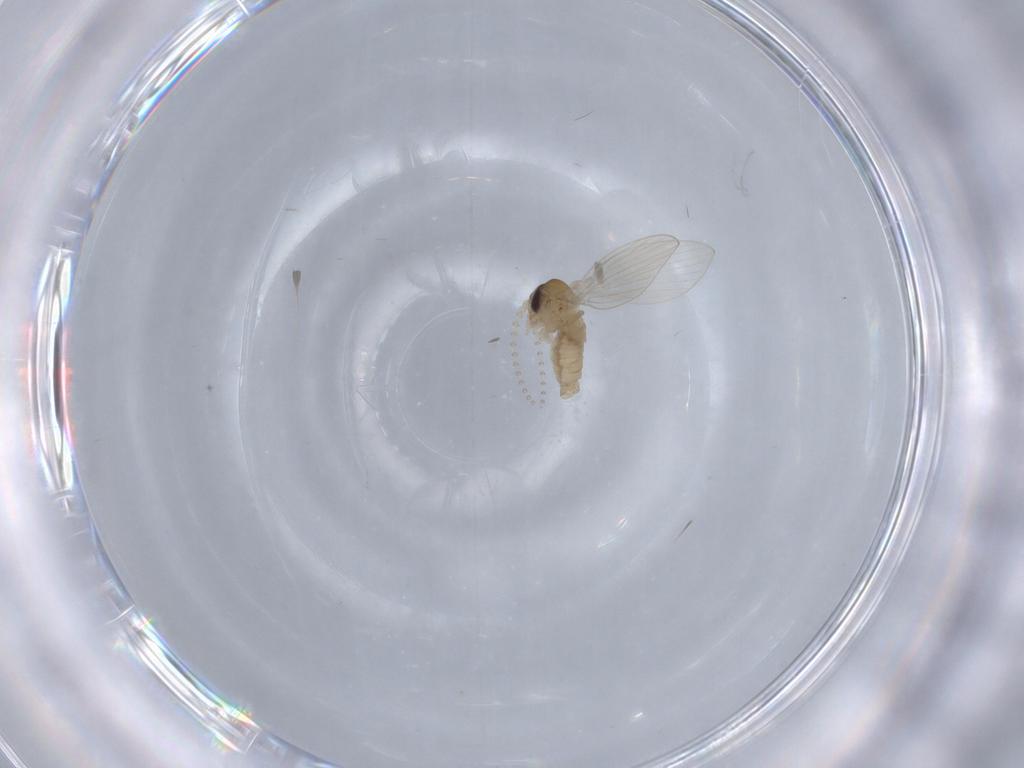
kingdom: Animalia
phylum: Arthropoda
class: Insecta
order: Diptera
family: Psychodidae
